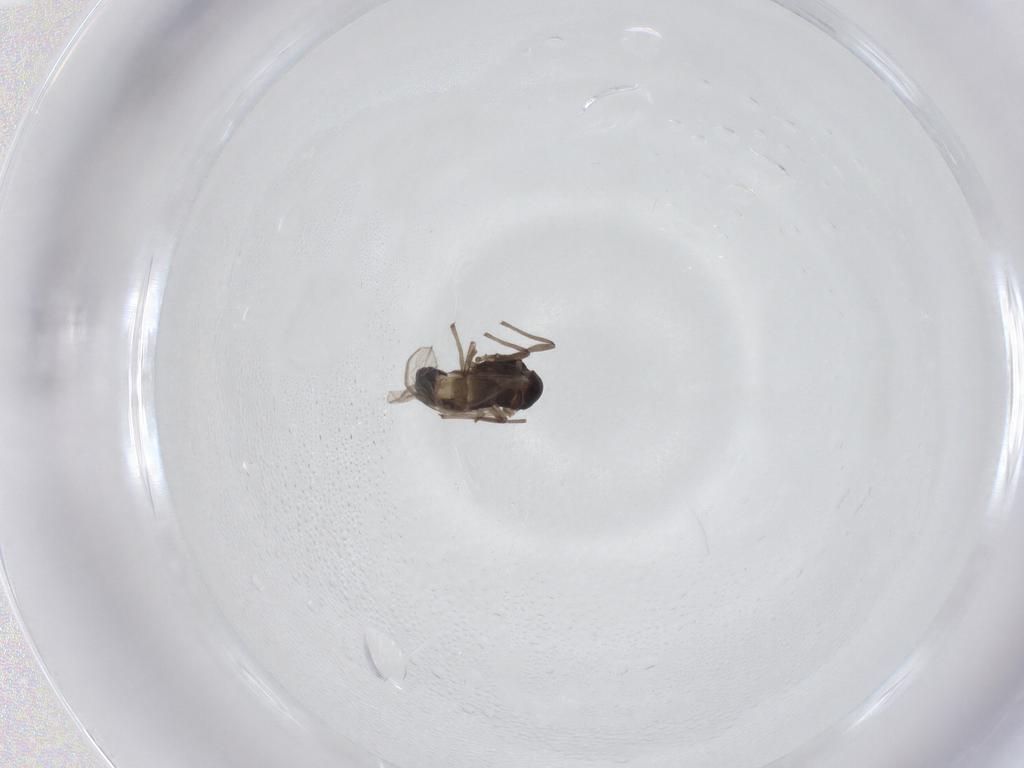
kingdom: Animalia
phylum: Arthropoda
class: Insecta
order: Diptera
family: Chironomidae
